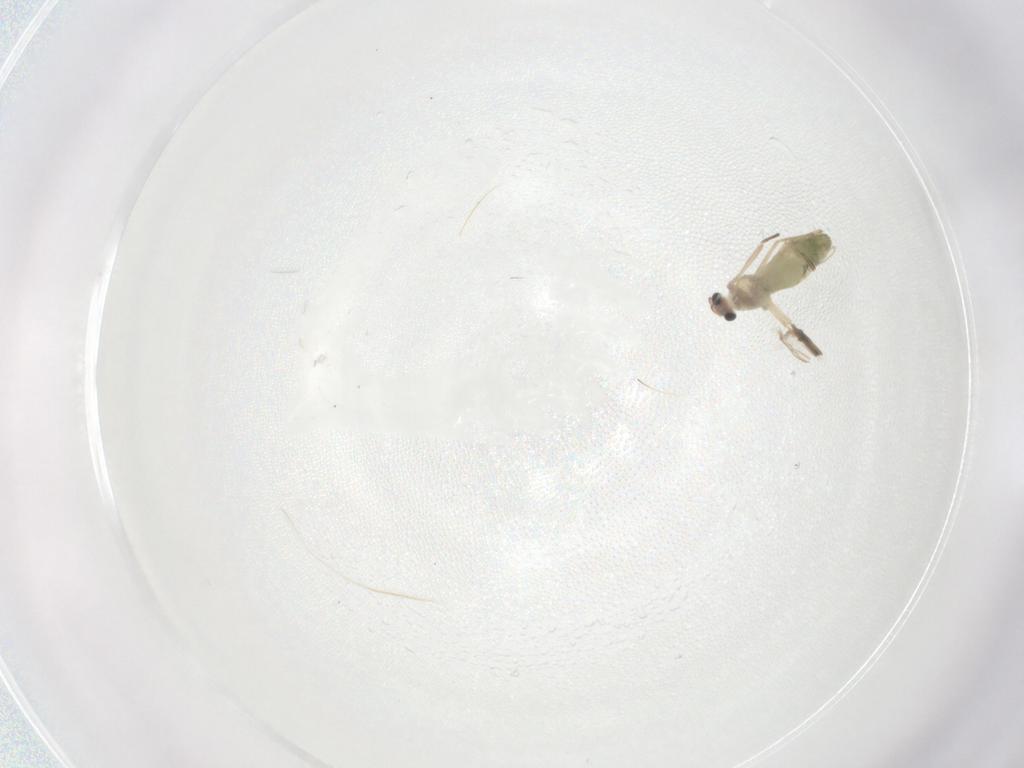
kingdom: Animalia
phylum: Arthropoda
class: Insecta
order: Diptera
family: Chironomidae
